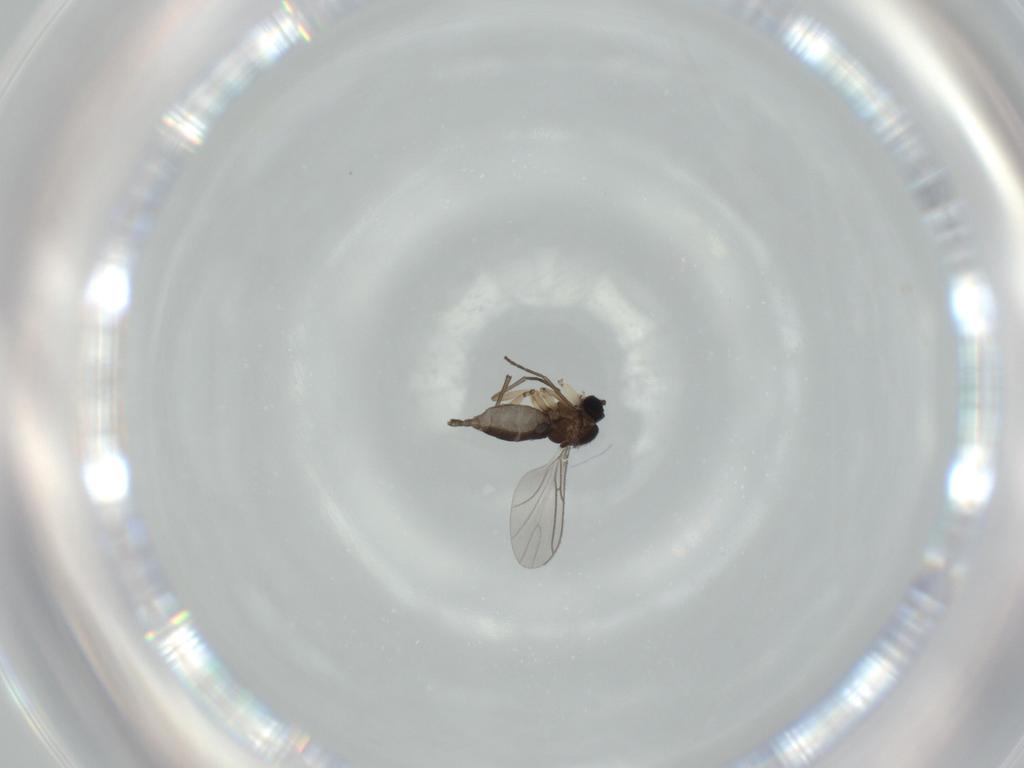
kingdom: Animalia
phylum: Arthropoda
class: Insecta
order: Diptera
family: Sciaridae
